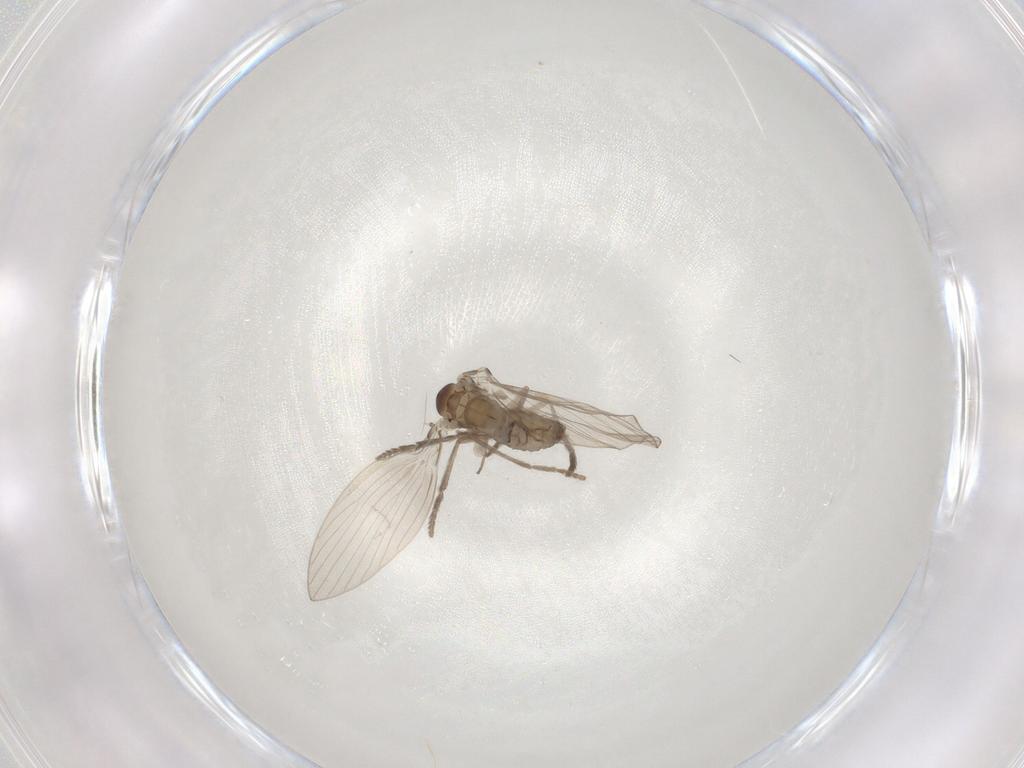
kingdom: Animalia
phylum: Arthropoda
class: Insecta
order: Diptera
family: Psychodidae
